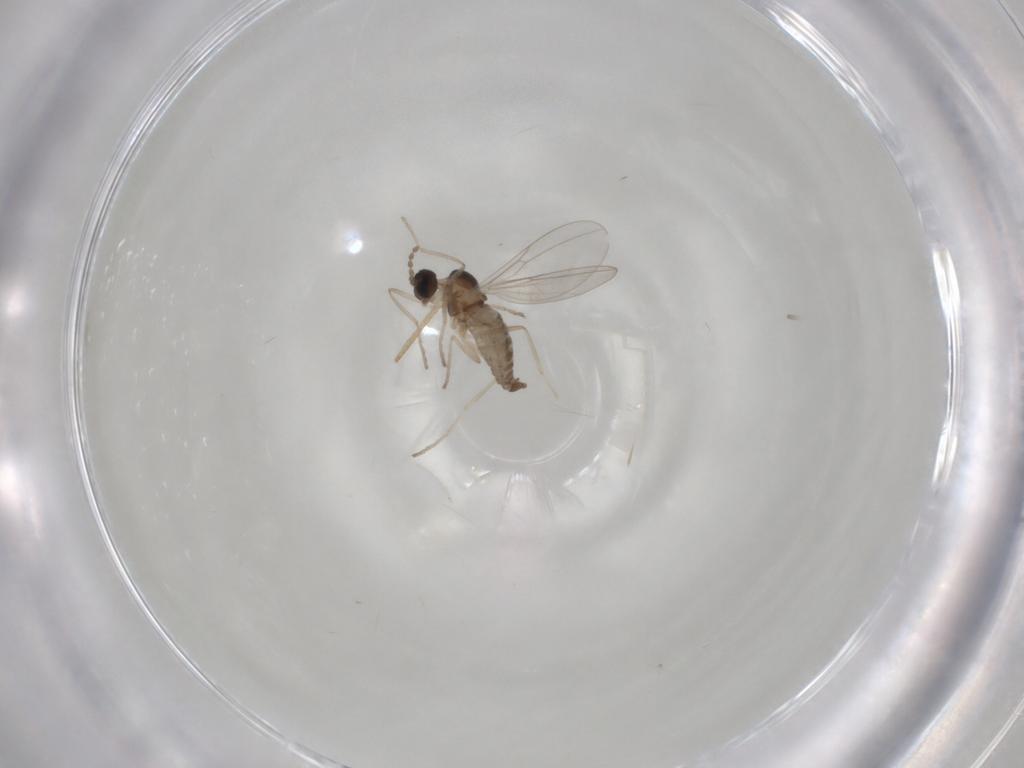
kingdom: Animalia
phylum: Arthropoda
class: Insecta
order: Diptera
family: Cecidomyiidae
